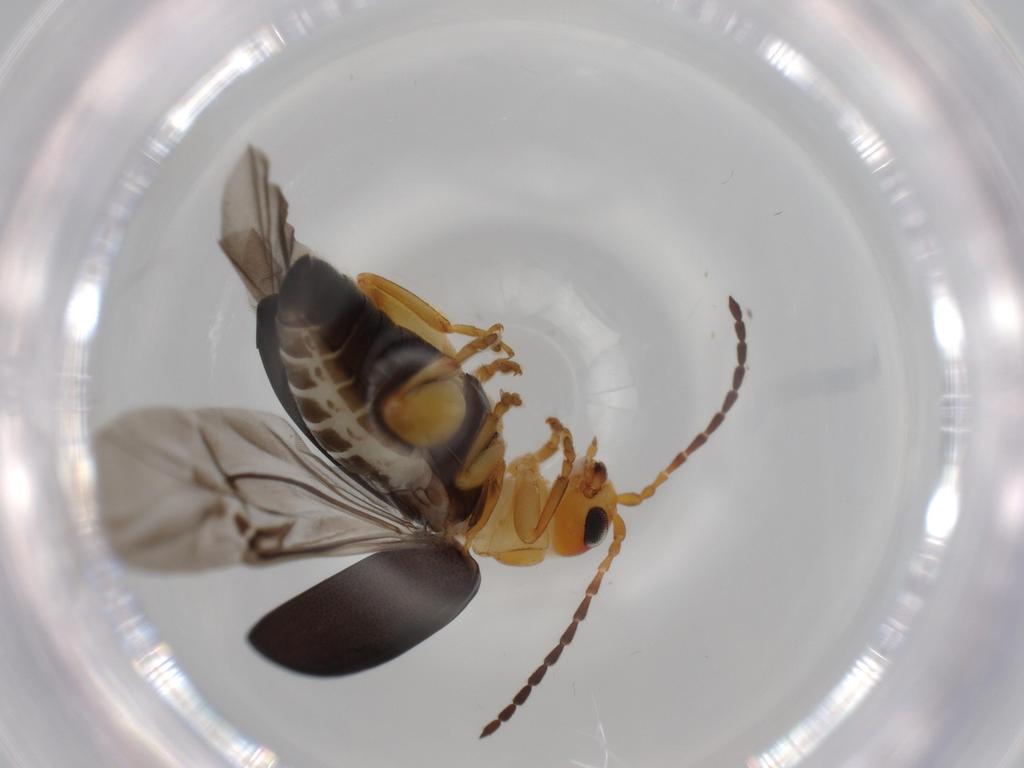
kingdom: Animalia
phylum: Arthropoda
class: Insecta
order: Coleoptera
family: Chrysomelidae
